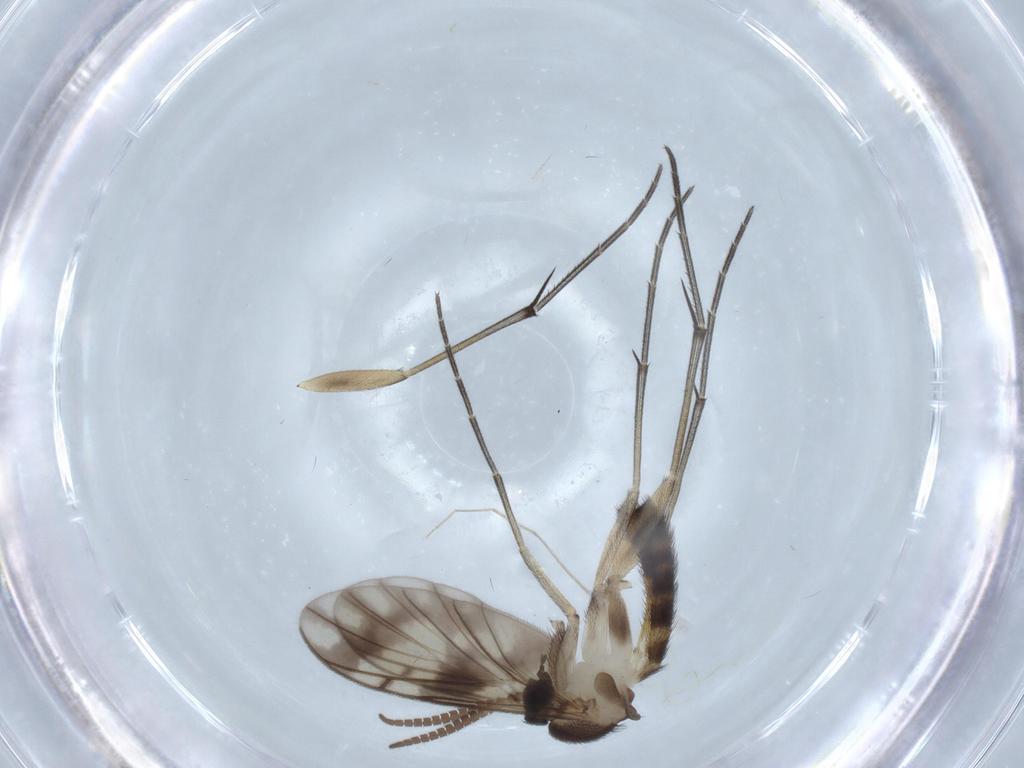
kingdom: Animalia
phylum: Arthropoda
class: Insecta
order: Diptera
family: Keroplatidae
